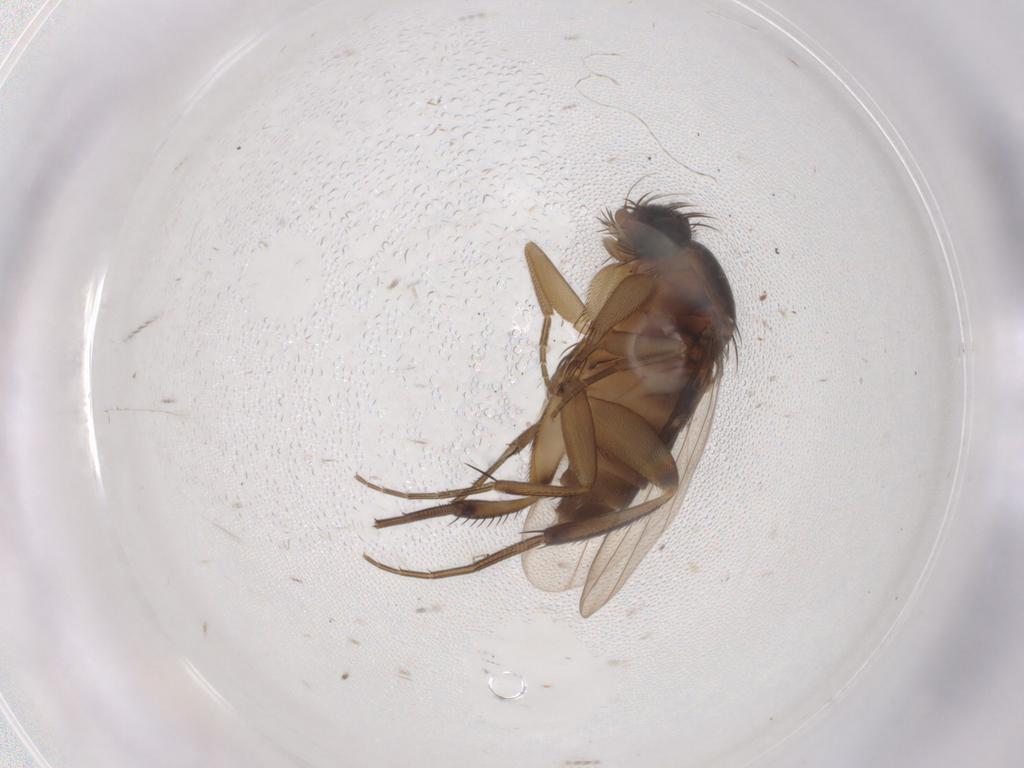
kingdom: Animalia
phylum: Arthropoda
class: Insecta
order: Diptera
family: Phoridae
